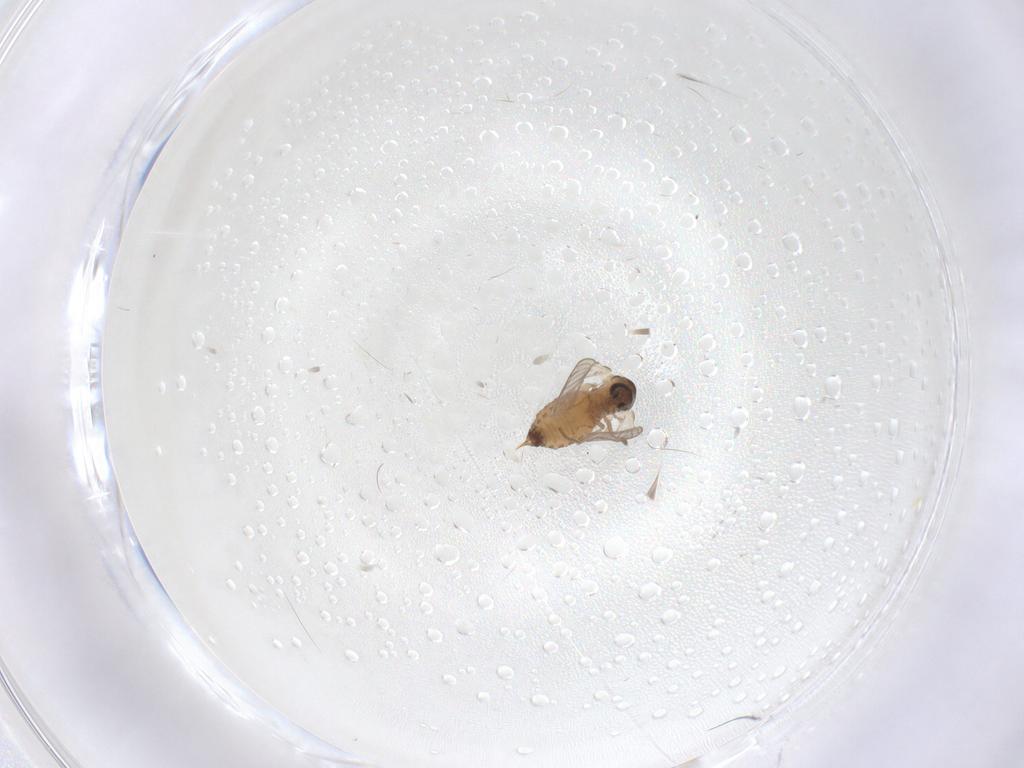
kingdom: Animalia
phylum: Arthropoda
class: Insecta
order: Diptera
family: Psychodidae
